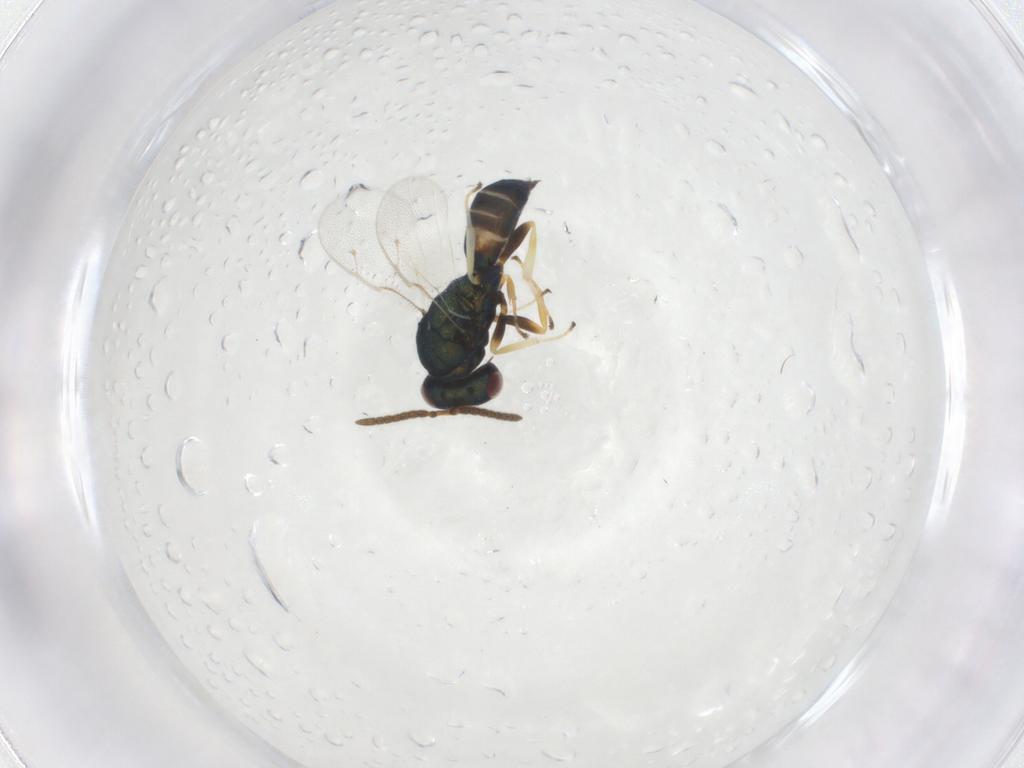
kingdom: Animalia
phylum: Arthropoda
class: Insecta
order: Hymenoptera
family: Pteromalidae
